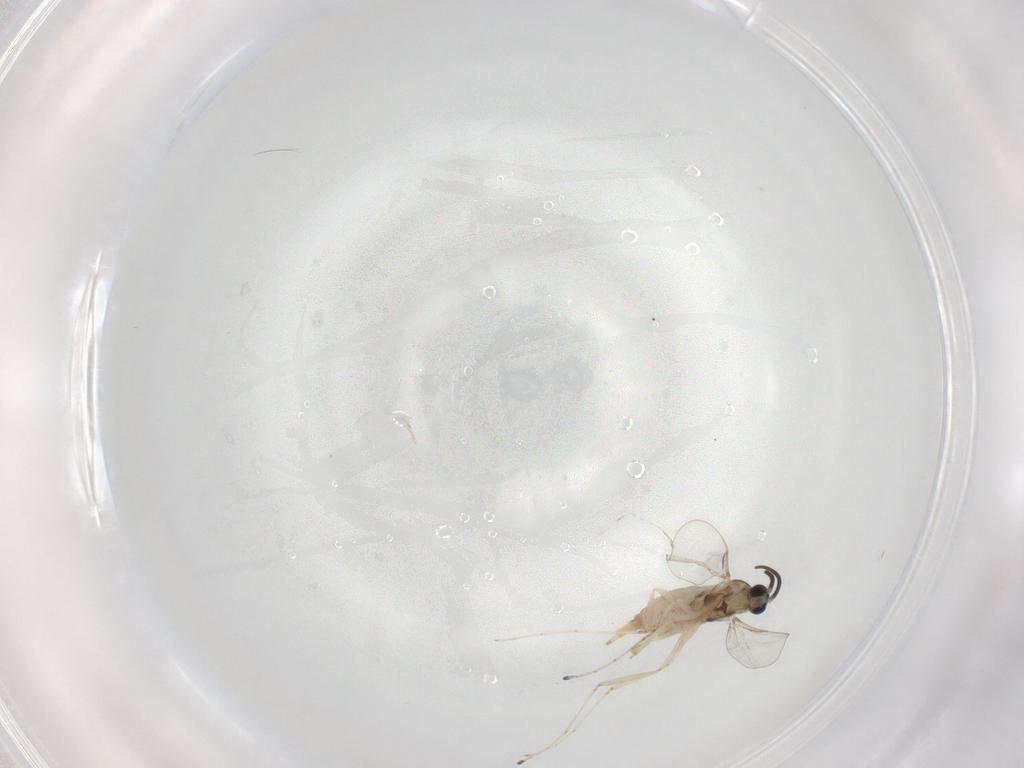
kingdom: Animalia
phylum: Arthropoda
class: Insecta
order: Diptera
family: Cecidomyiidae
